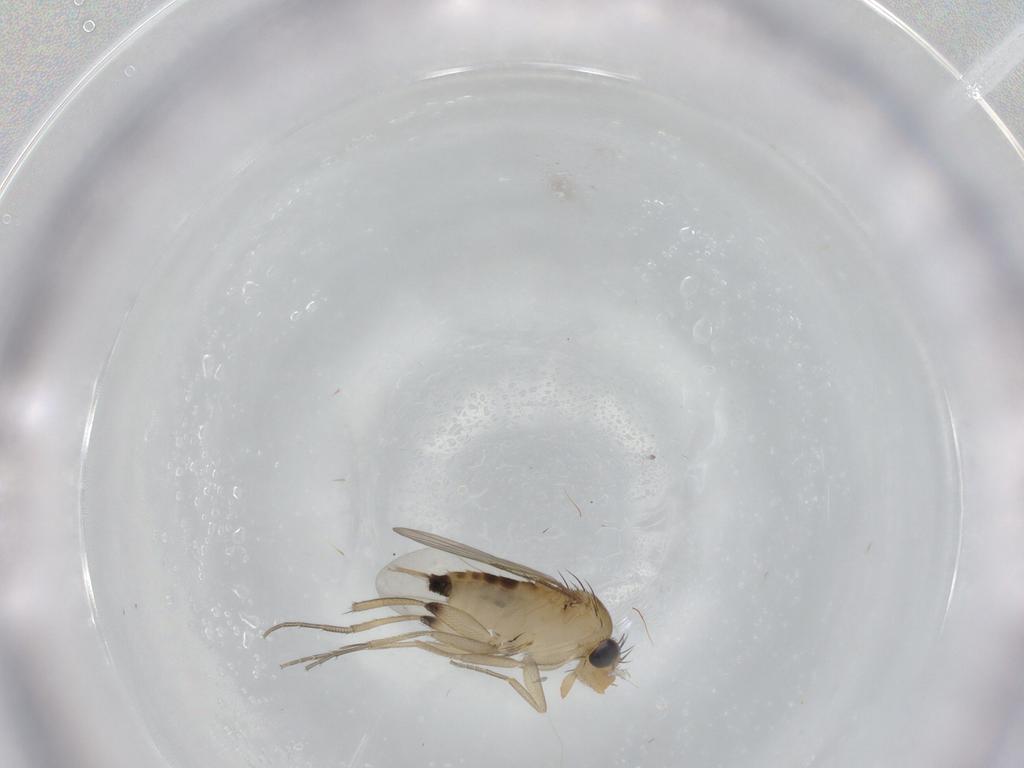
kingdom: Animalia
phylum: Arthropoda
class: Insecta
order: Diptera
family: Phoridae
